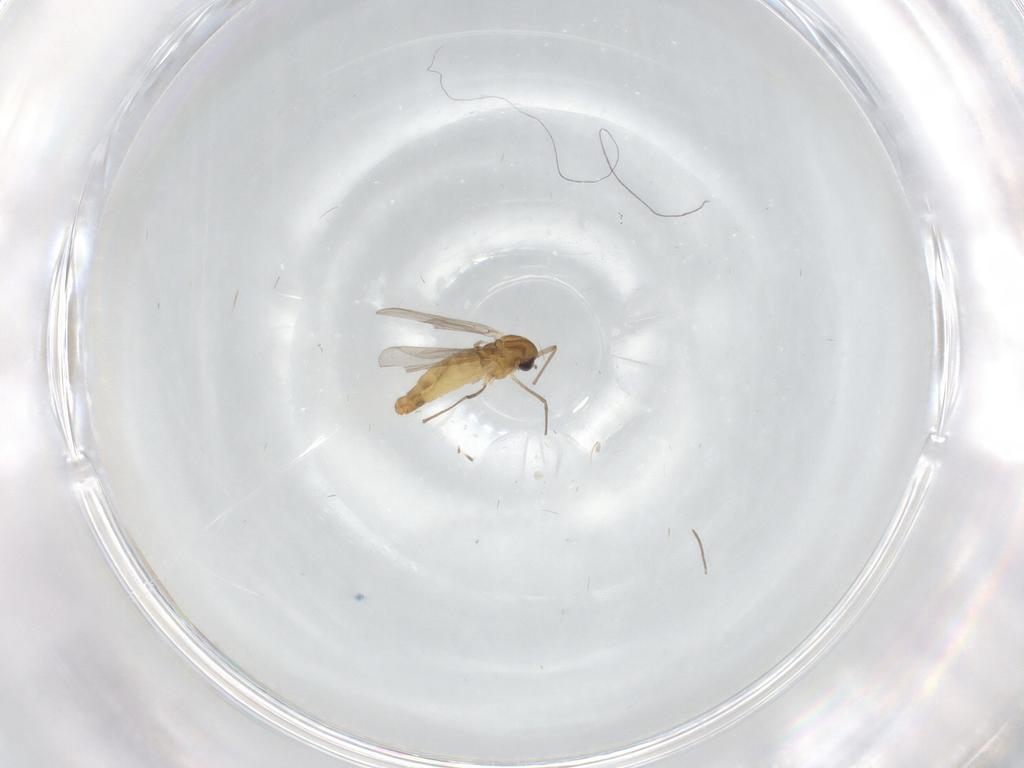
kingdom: Animalia
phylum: Arthropoda
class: Insecta
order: Diptera
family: Chironomidae
